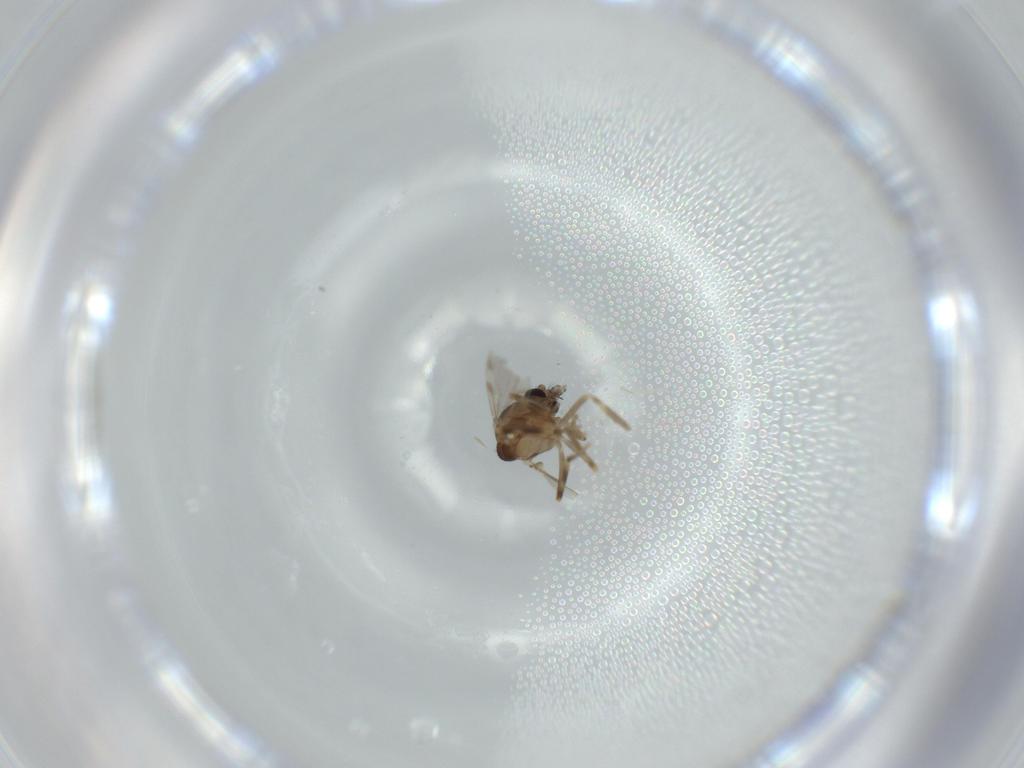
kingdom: Animalia
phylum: Arthropoda
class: Insecta
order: Diptera
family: Ceratopogonidae
